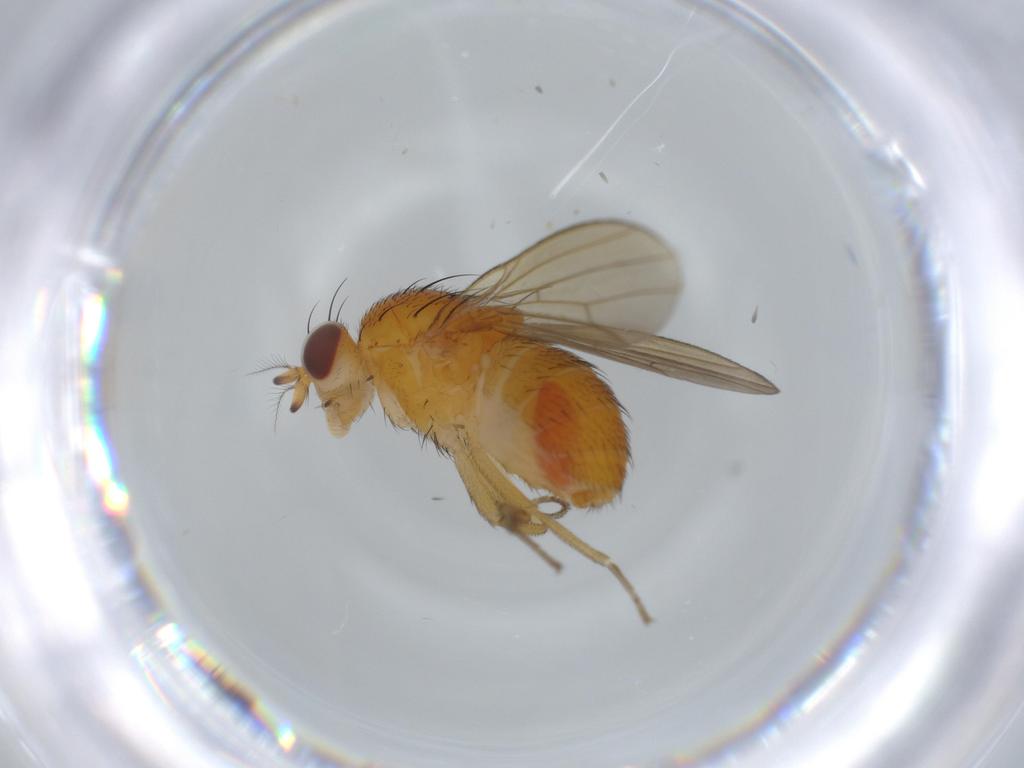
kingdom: Animalia
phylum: Arthropoda
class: Insecta
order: Diptera
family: Lauxaniidae
